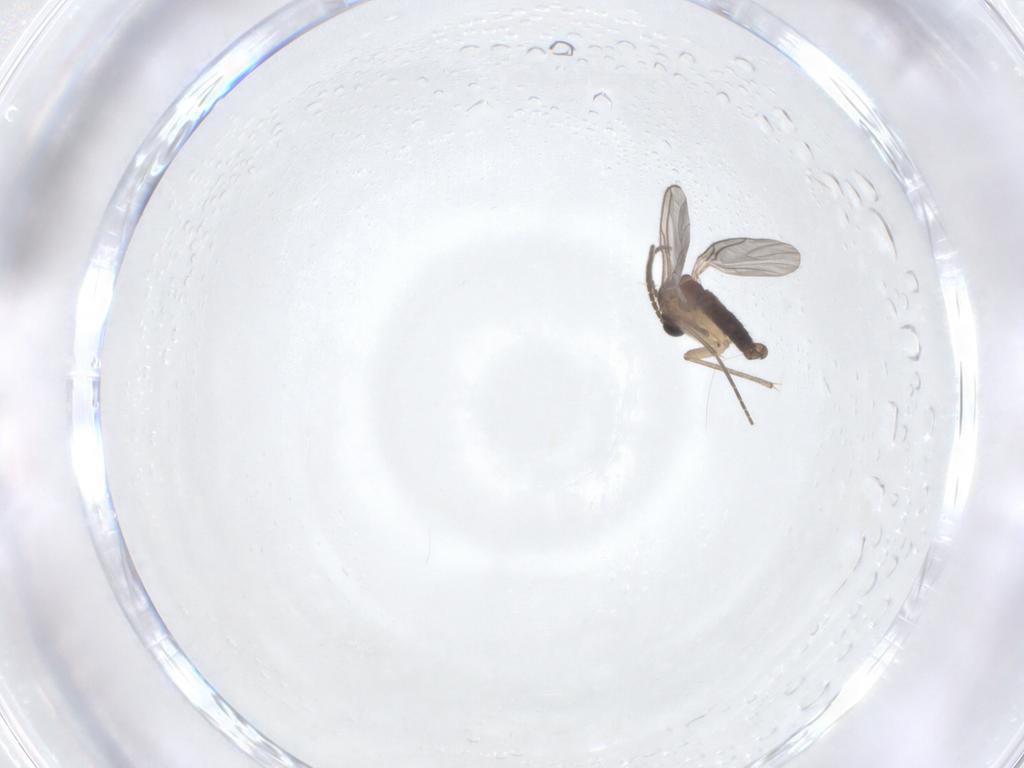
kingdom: Animalia
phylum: Arthropoda
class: Insecta
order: Diptera
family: Sciaridae
